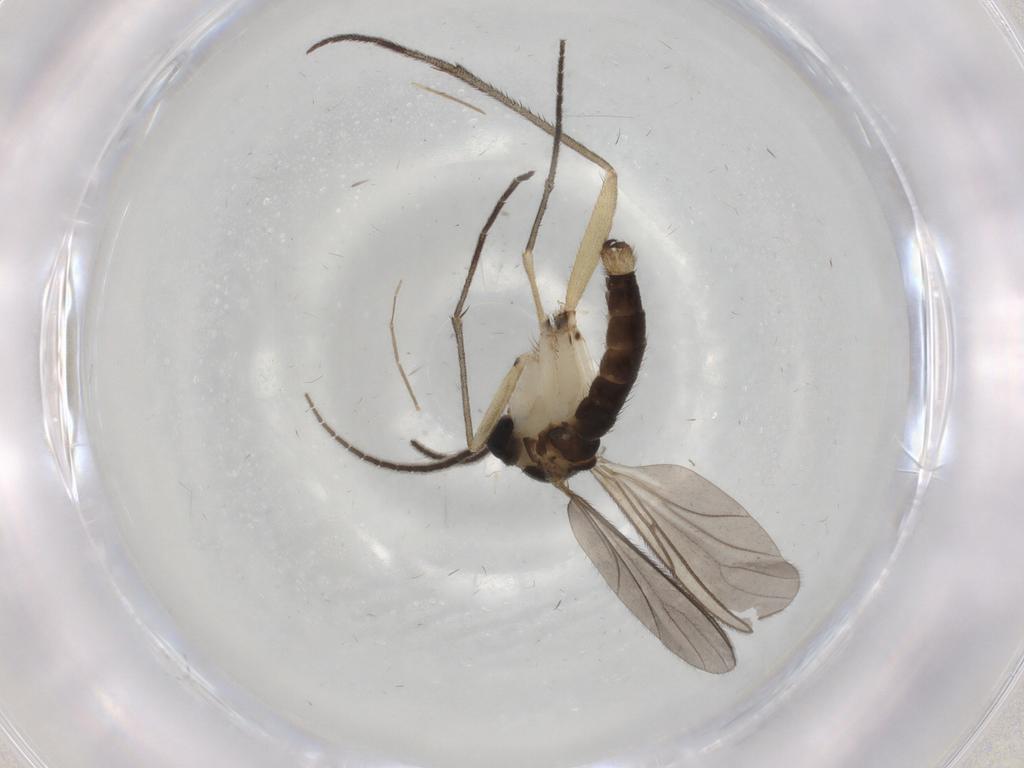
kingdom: Animalia
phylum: Arthropoda
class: Insecta
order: Diptera
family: Sciaridae
